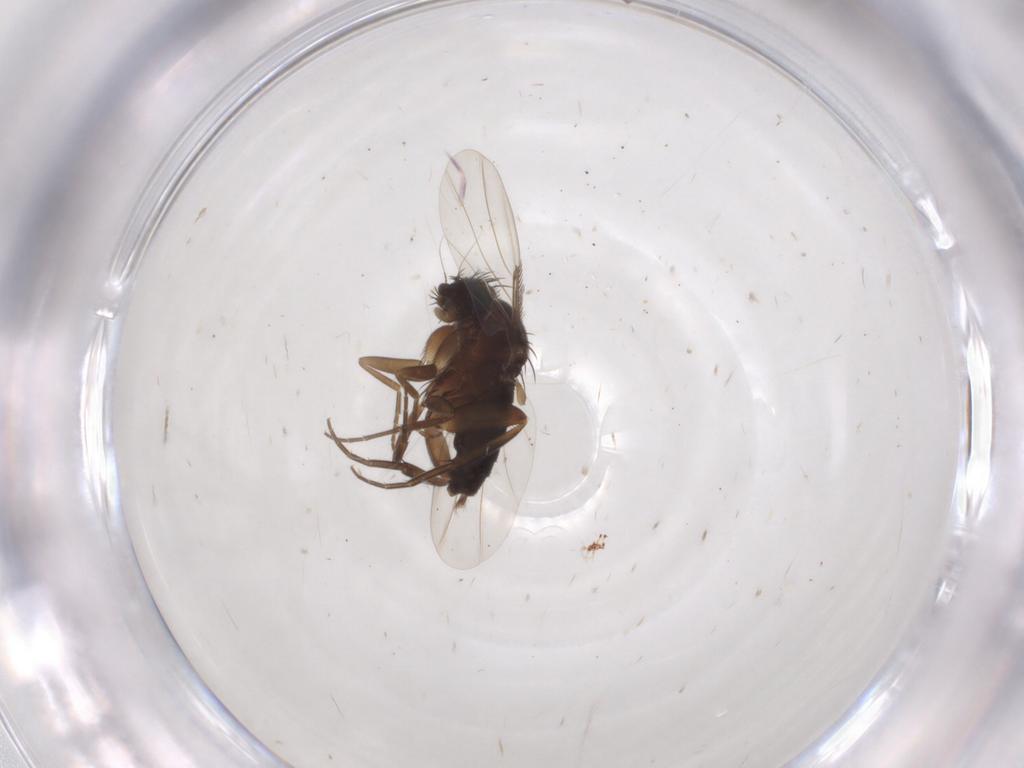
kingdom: Animalia
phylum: Arthropoda
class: Insecta
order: Diptera
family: Phoridae
